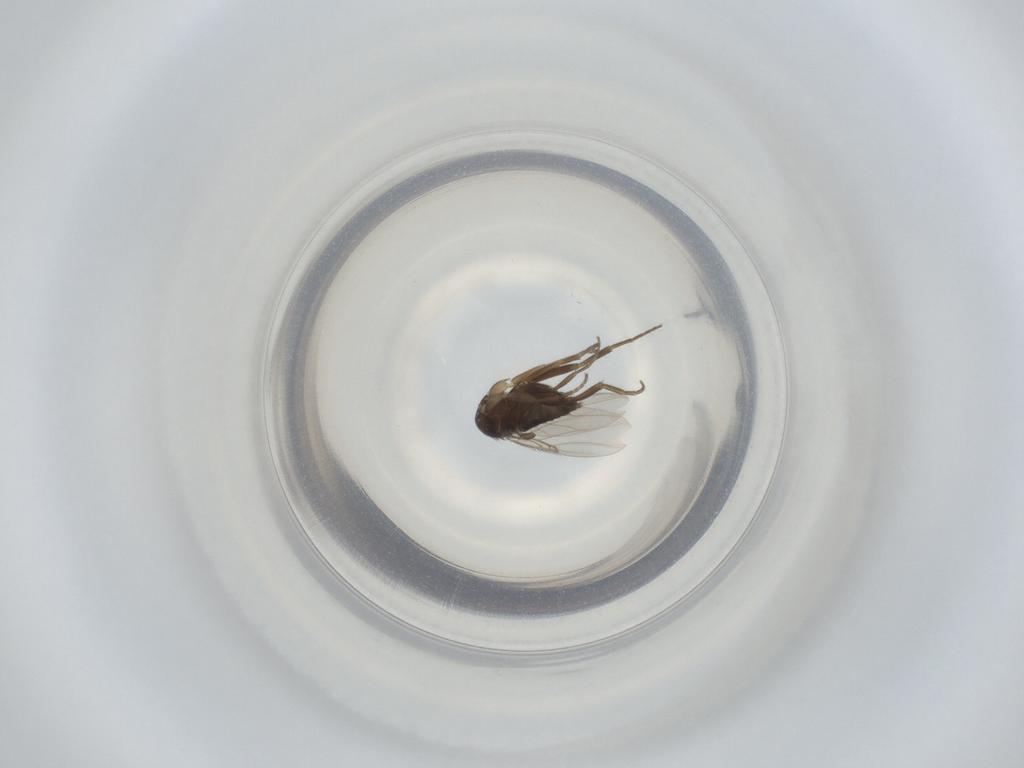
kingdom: Animalia
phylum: Arthropoda
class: Insecta
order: Diptera
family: Phoridae
